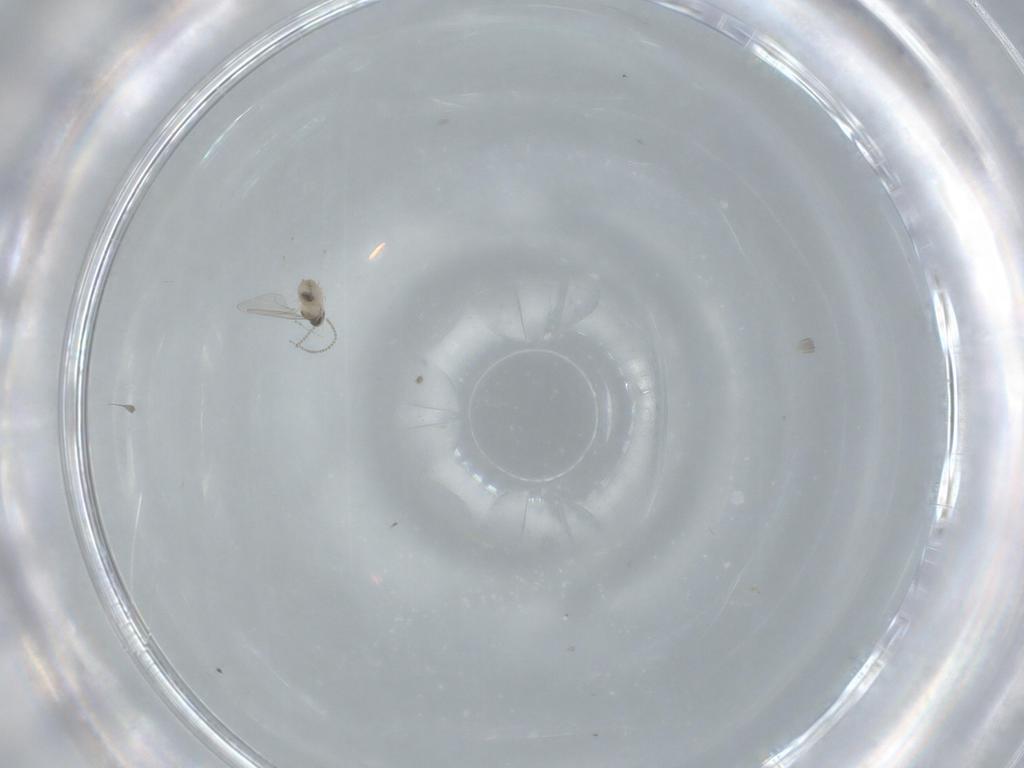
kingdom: Animalia
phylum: Arthropoda
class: Insecta
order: Diptera
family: Cecidomyiidae
